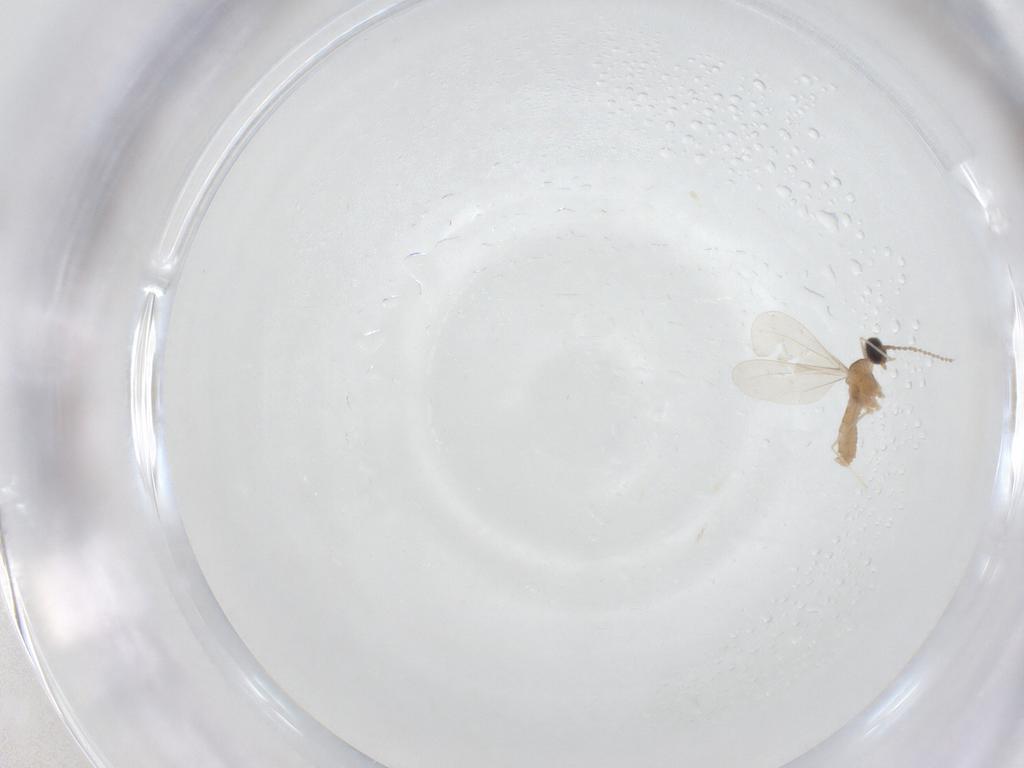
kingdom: Animalia
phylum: Arthropoda
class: Insecta
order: Diptera
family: Cecidomyiidae
